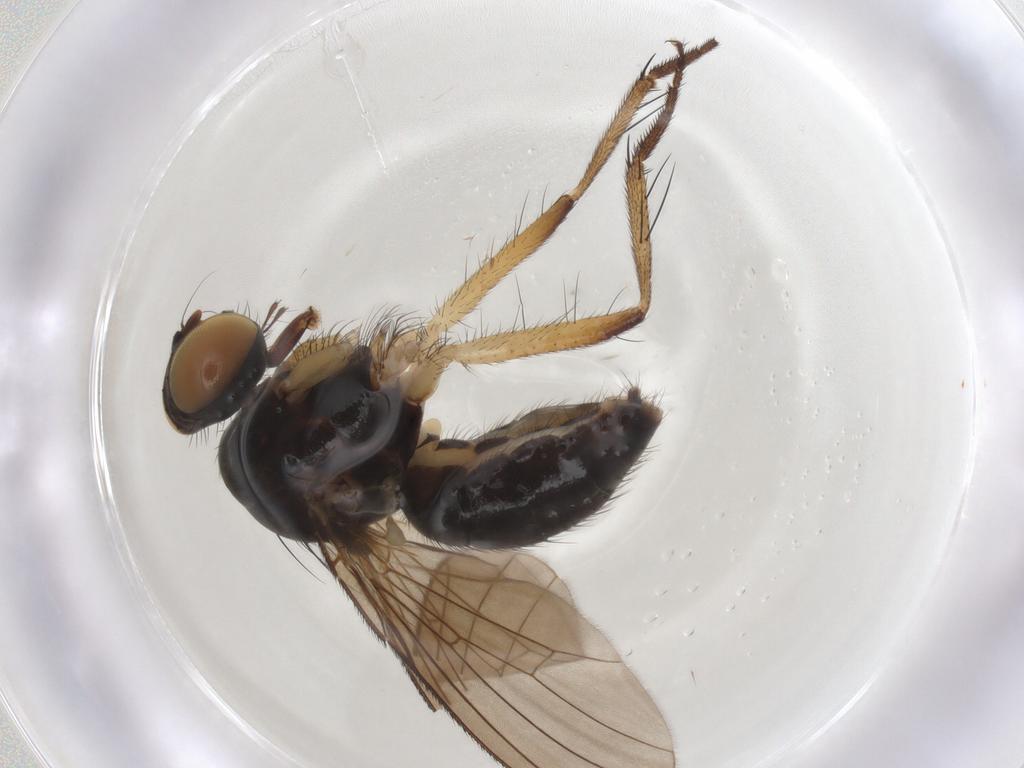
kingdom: Animalia
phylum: Arthropoda
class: Insecta
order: Diptera
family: Muscidae
